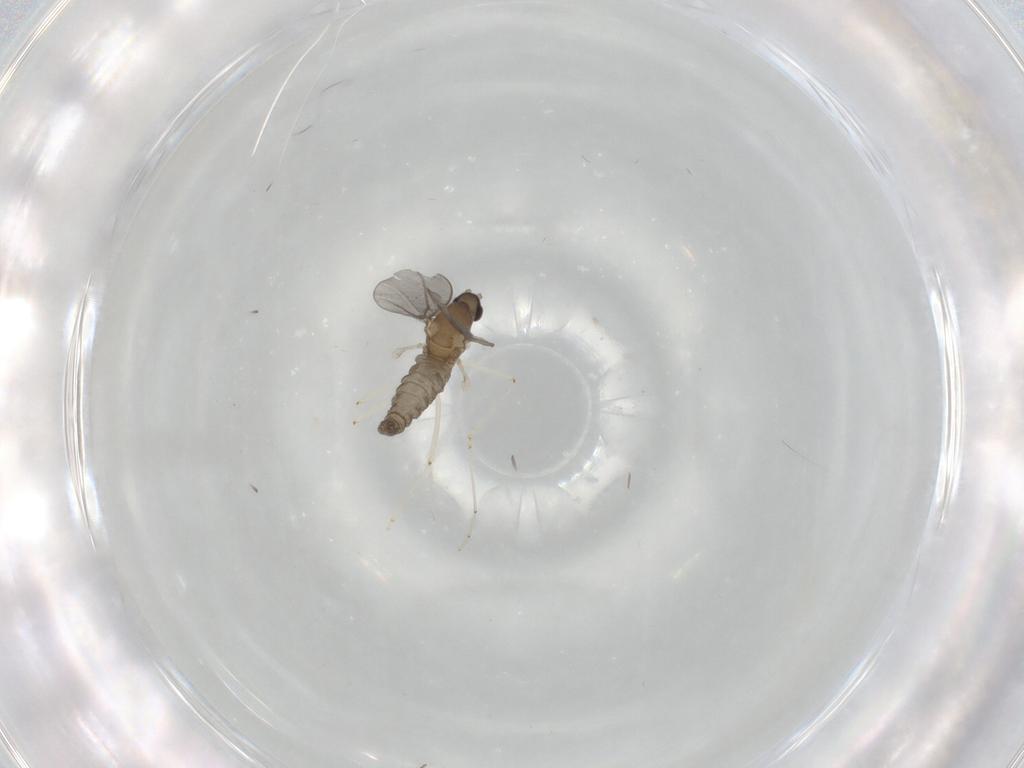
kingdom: Animalia
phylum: Arthropoda
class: Insecta
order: Diptera
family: Cecidomyiidae
